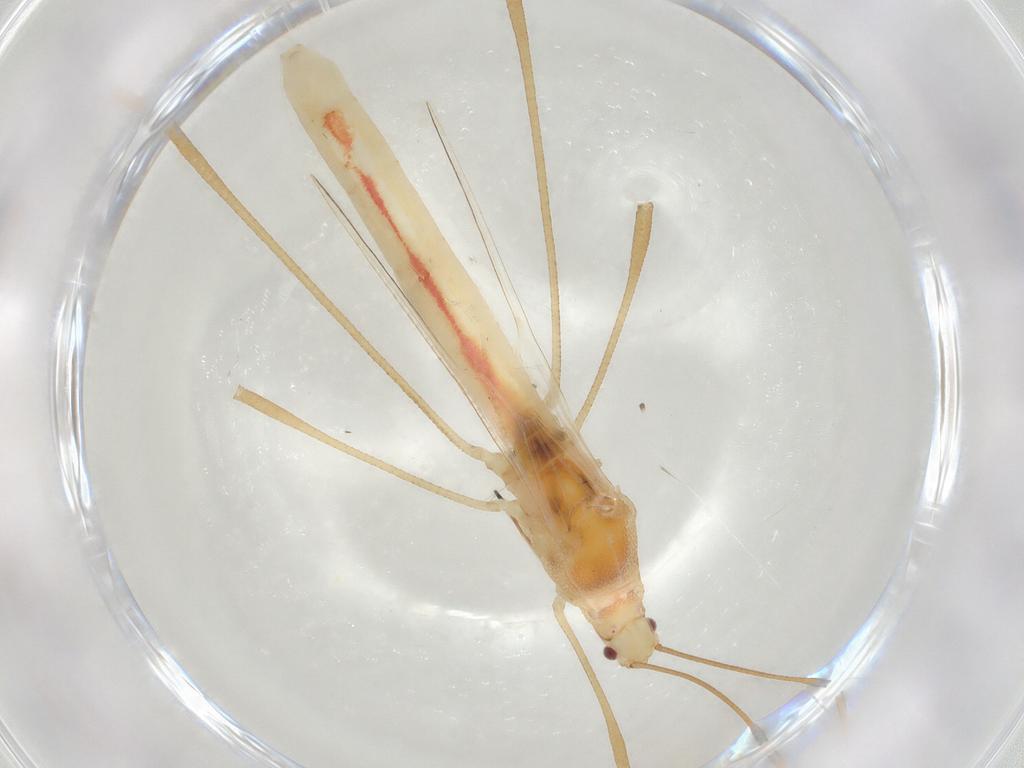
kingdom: Animalia
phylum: Arthropoda
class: Insecta
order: Hemiptera
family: Berytidae
